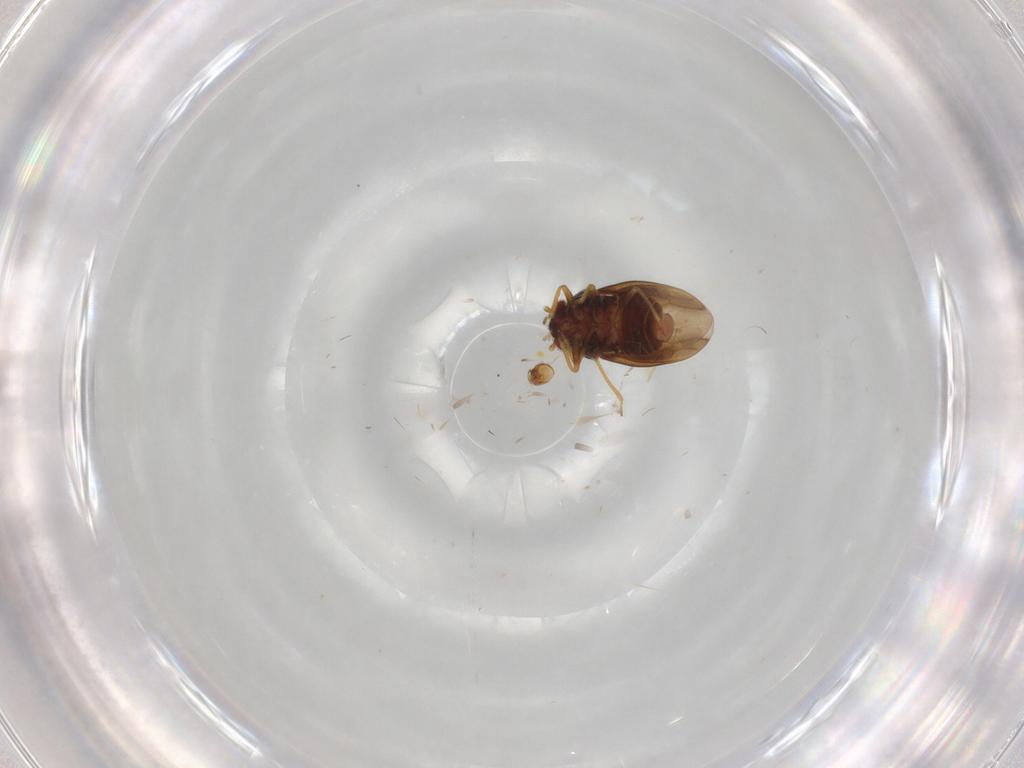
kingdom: Animalia
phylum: Arthropoda
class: Insecta
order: Hemiptera
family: Schizopteridae
